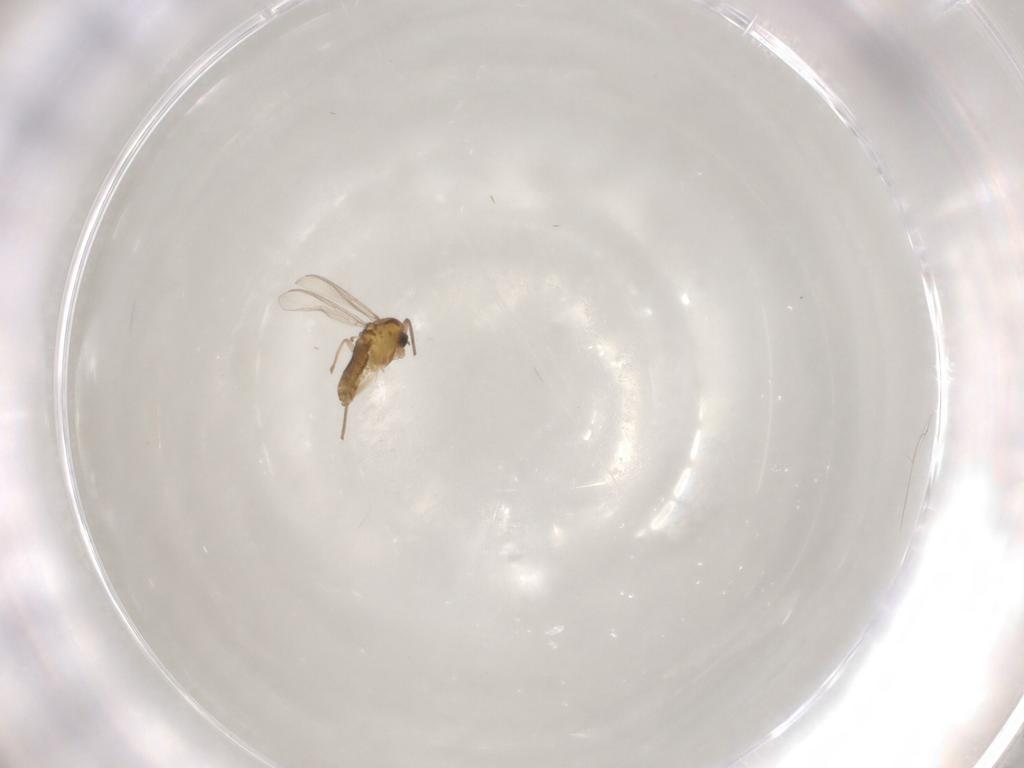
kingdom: Animalia
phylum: Arthropoda
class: Insecta
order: Diptera
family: Chironomidae
